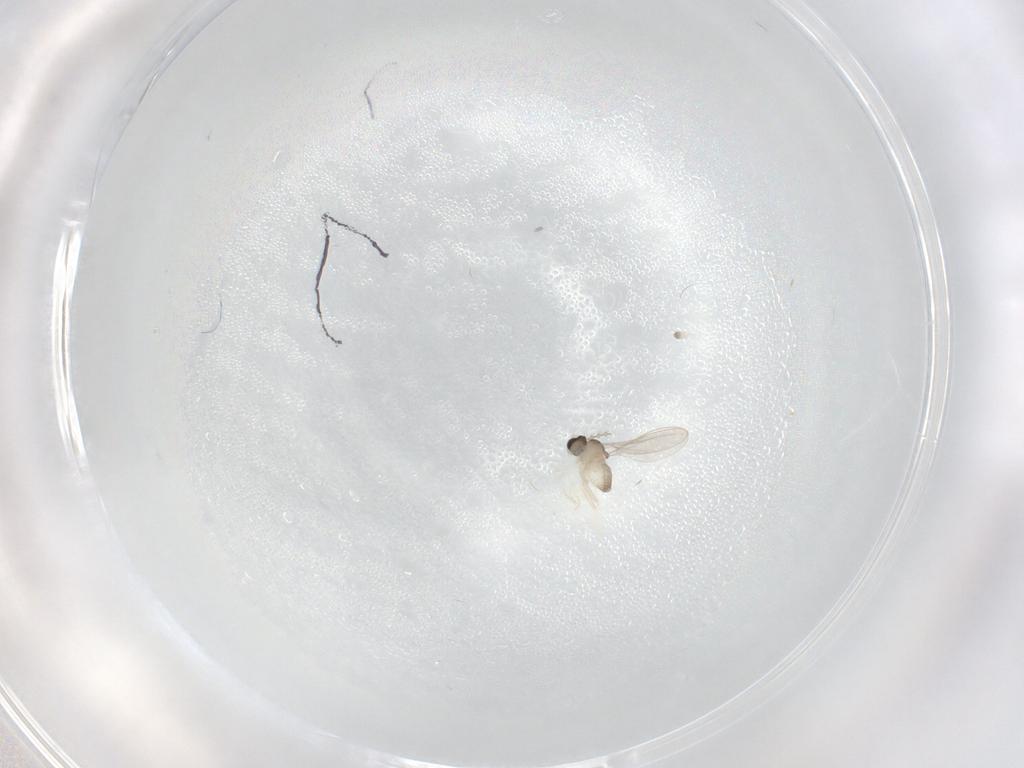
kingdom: Animalia
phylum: Arthropoda
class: Insecta
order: Diptera
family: Cecidomyiidae
